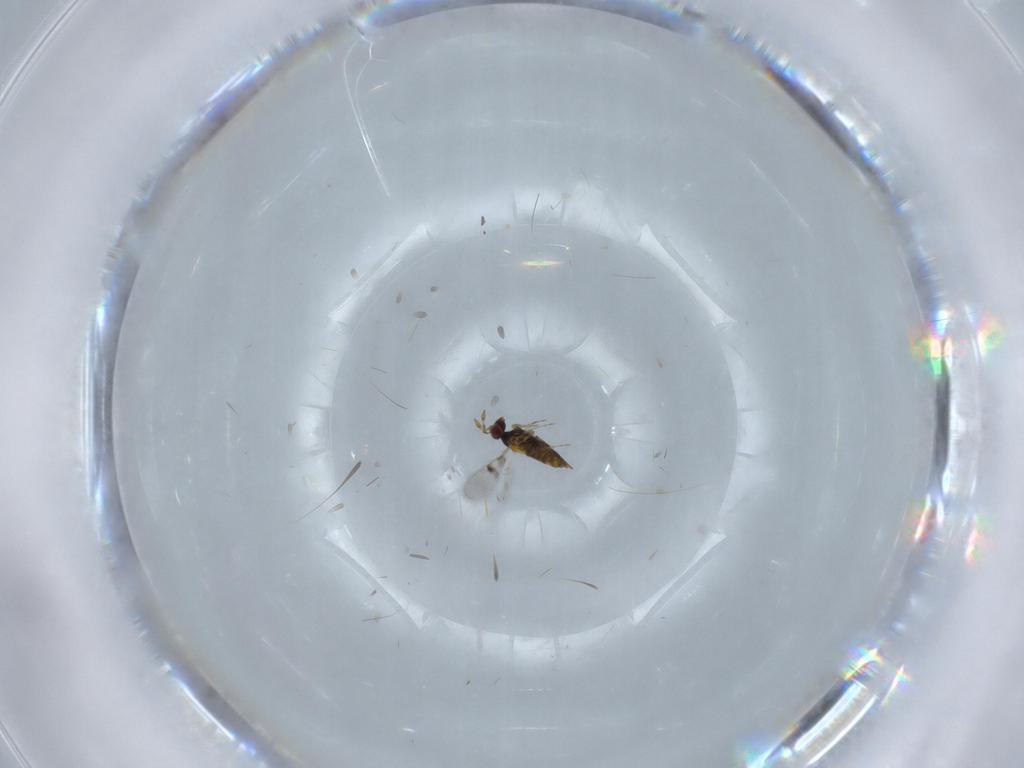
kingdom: Animalia
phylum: Arthropoda
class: Insecta
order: Hymenoptera
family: Trichogrammatidae
